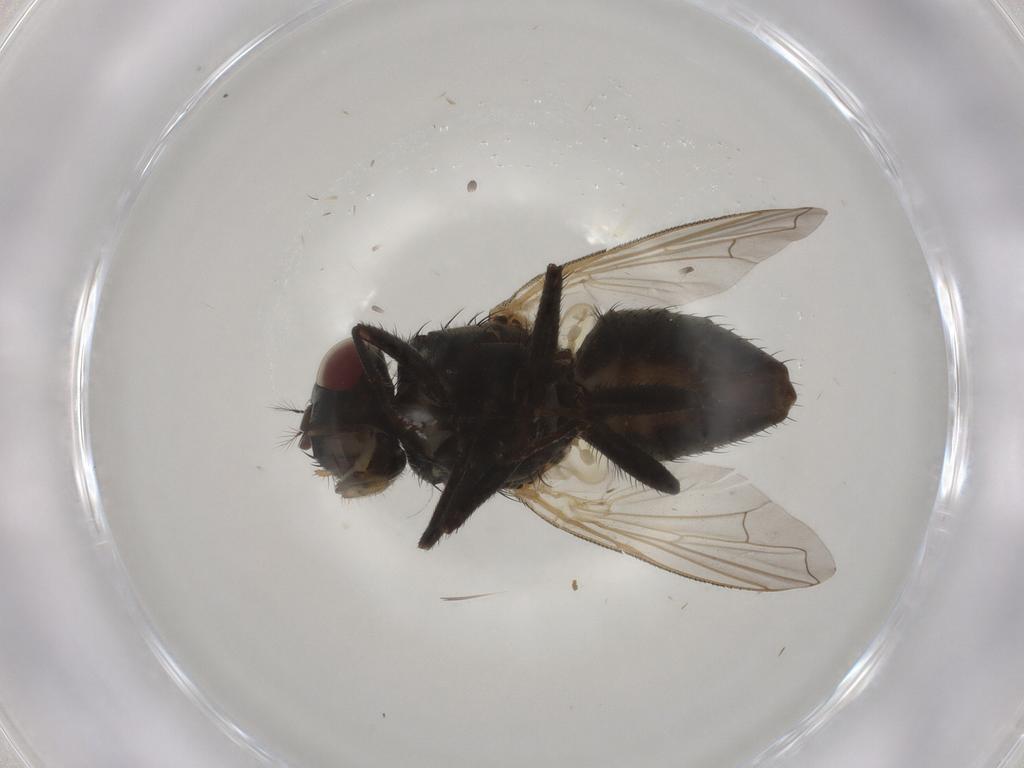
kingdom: Animalia
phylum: Arthropoda
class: Insecta
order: Diptera
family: Muscidae
